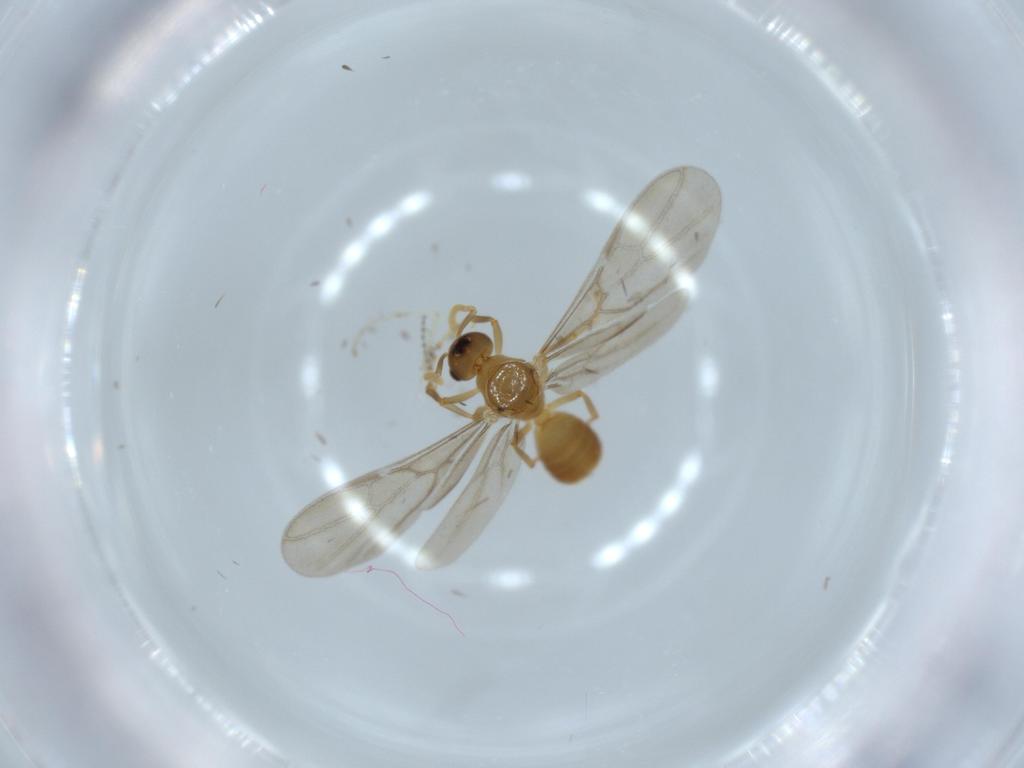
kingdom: Animalia
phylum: Arthropoda
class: Insecta
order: Hymenoptera
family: Formicidae
